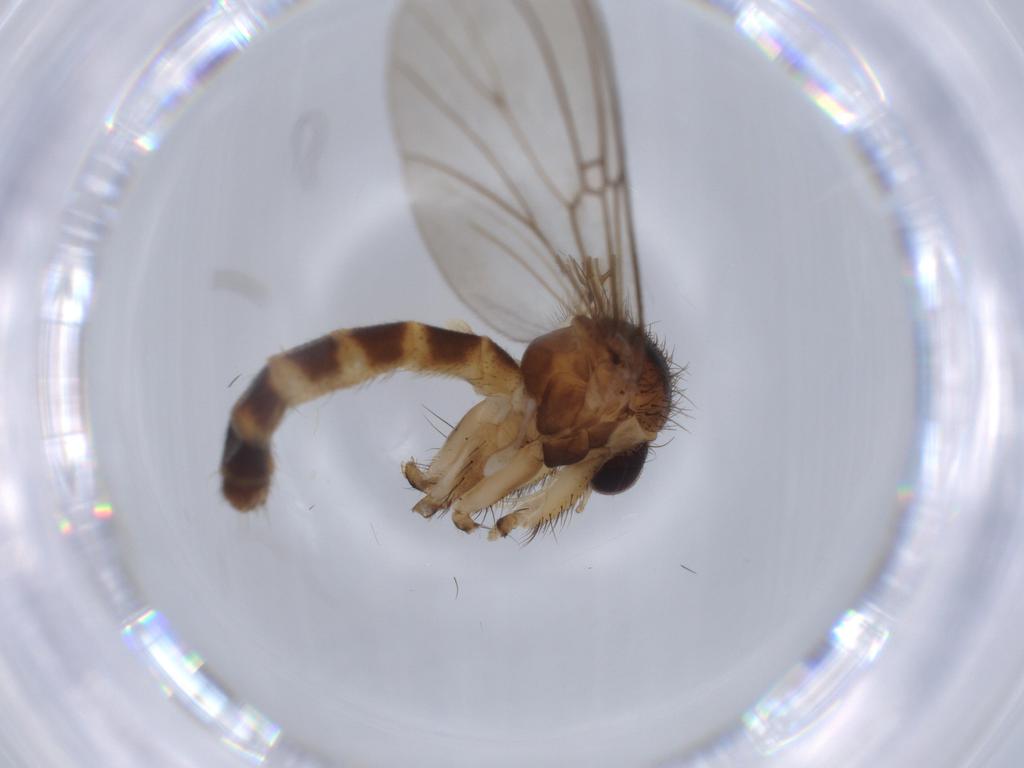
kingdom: Animalia
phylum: Arthropoda
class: Insecta
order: Diptera
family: Mycetophilidae
